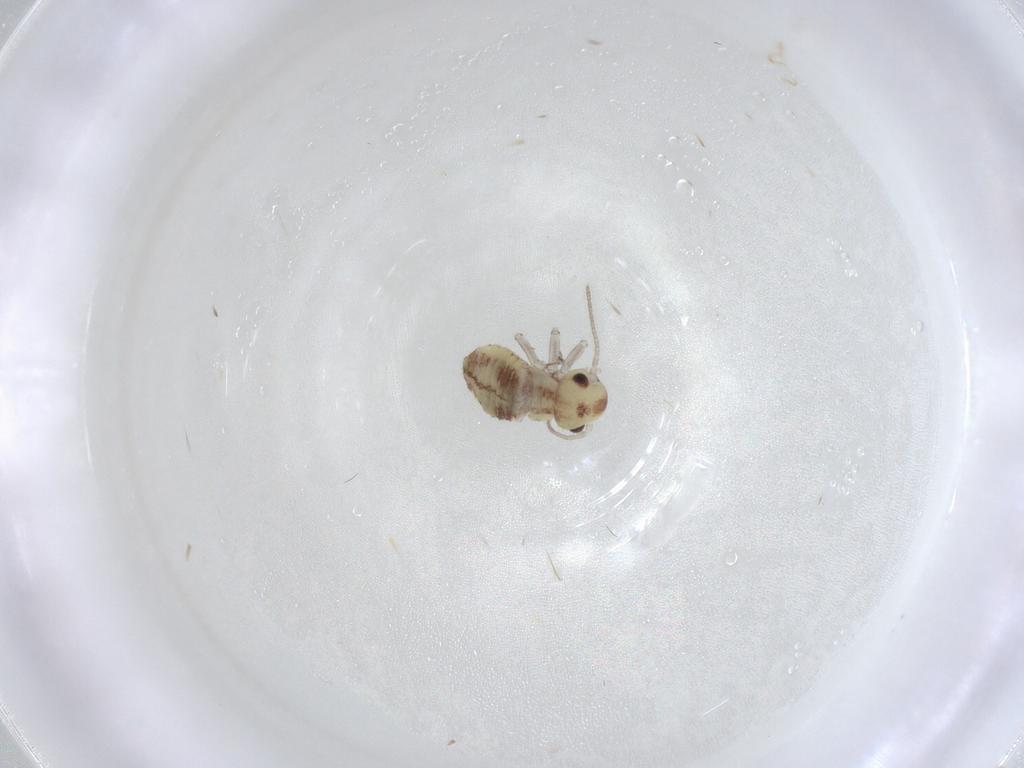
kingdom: Animalia
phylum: Arthropoda
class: Insecta
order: Psocodea
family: Psocidae
